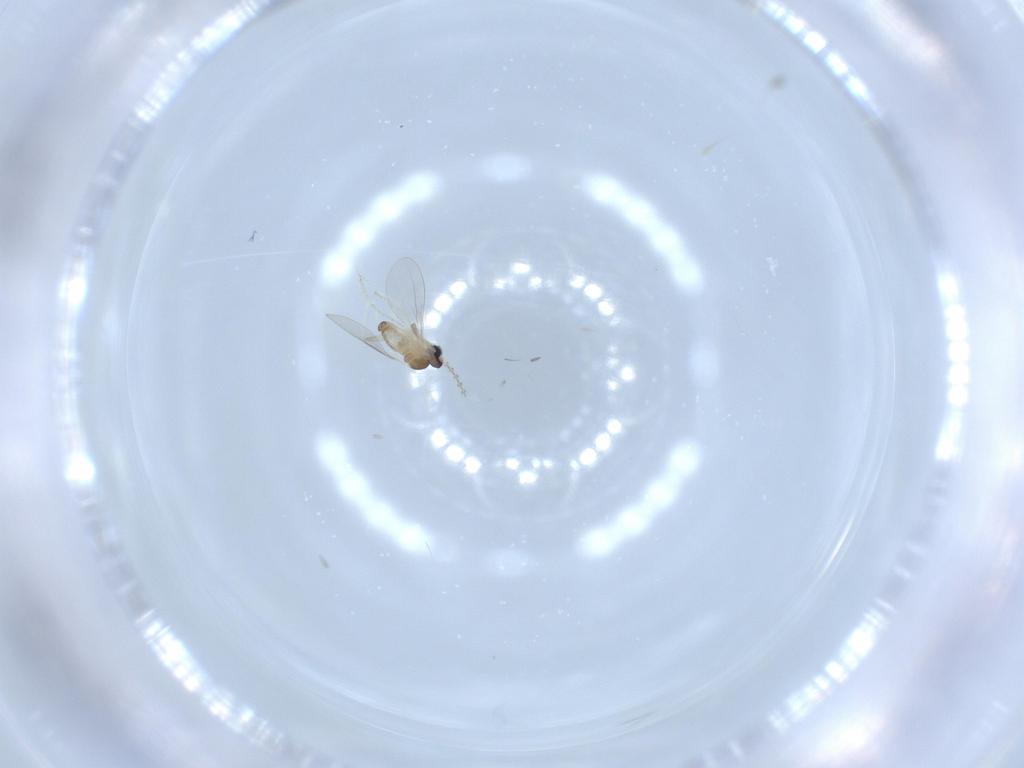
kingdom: Animalia
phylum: Arthropoda
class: Insecta
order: Diptera
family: Cecidomyiidae
